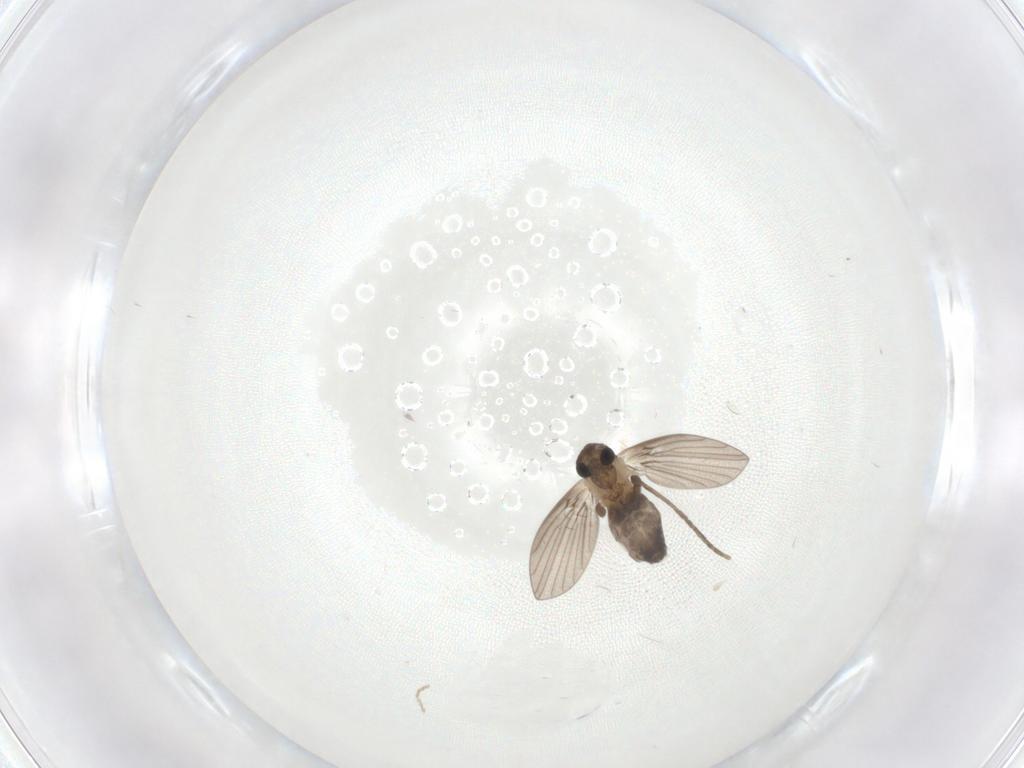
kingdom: Animalia
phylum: Arthropoda
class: Insecta
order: Diptera
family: Psychodidae
